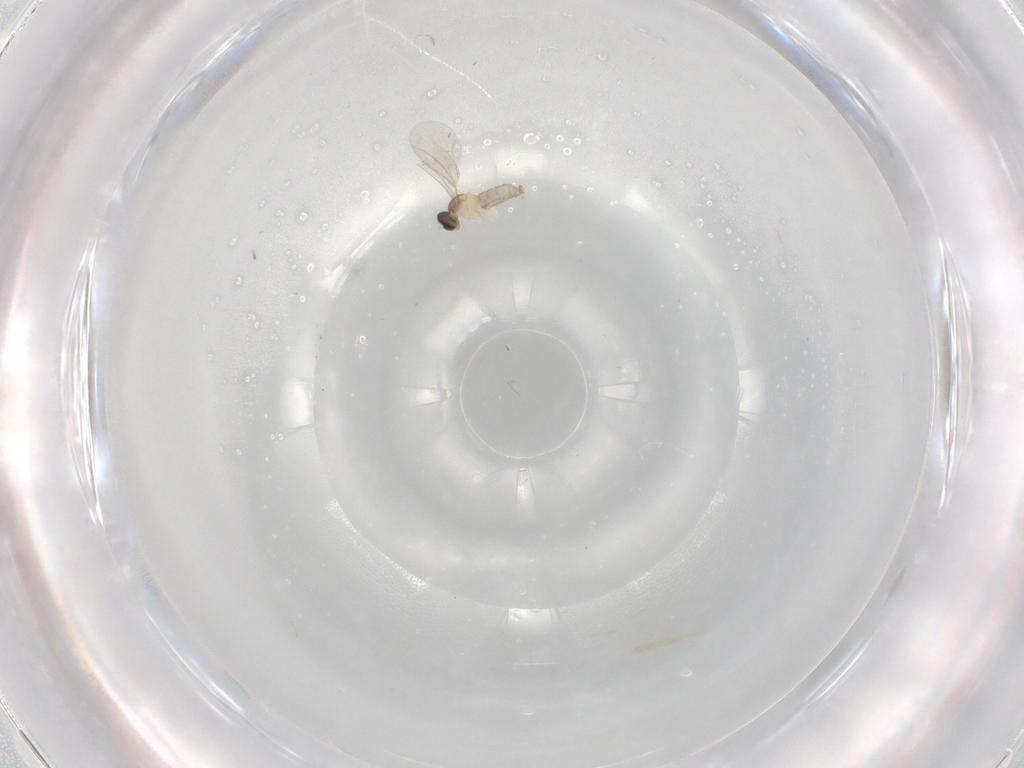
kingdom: Animalia
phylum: Arthropoda
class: Insecta
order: Diptera
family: Cecidomyiidae
